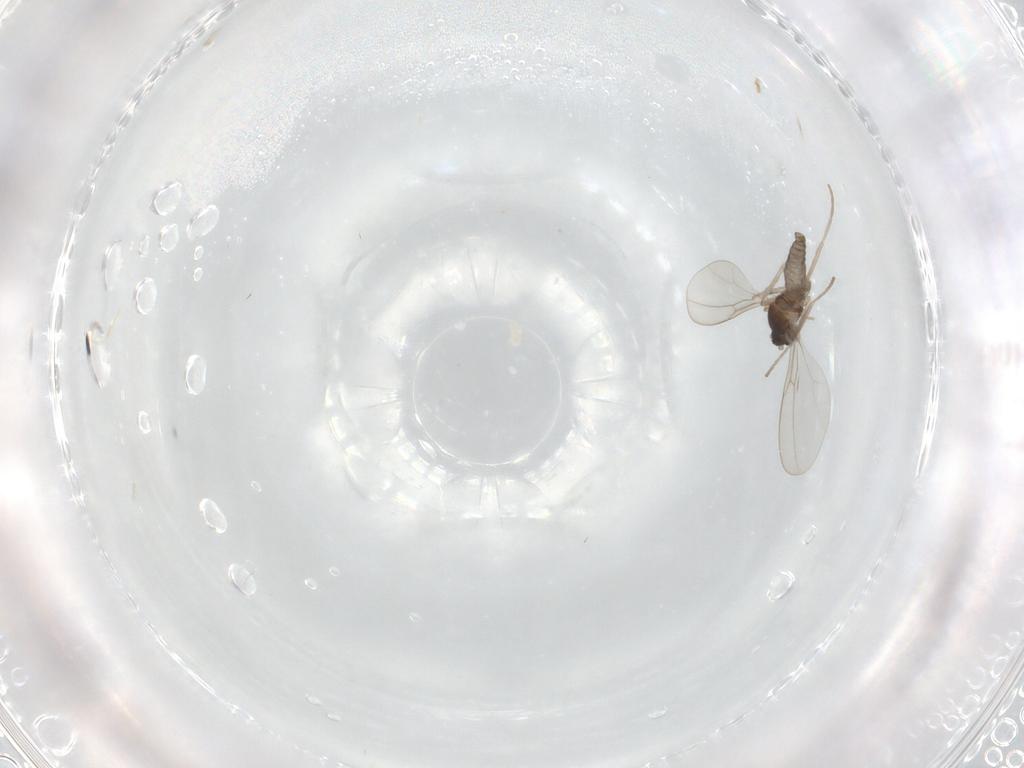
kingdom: Animalia
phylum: Arthropoda
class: Insecta
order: Diptera
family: Cecidomyiidae
